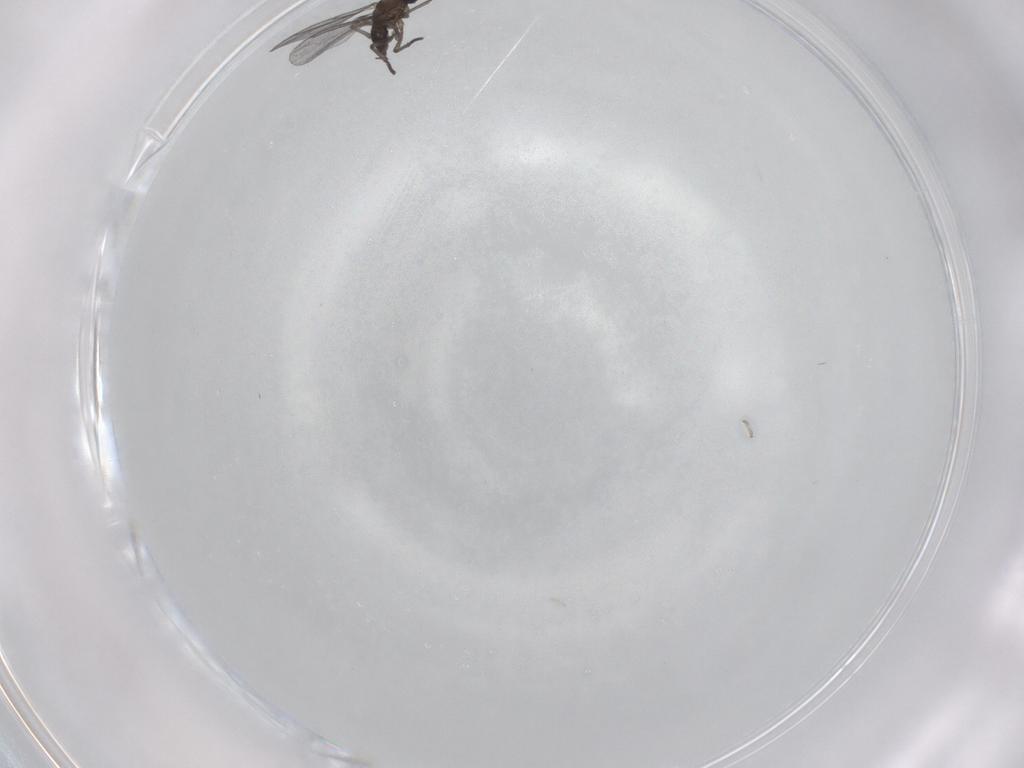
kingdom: Animalia
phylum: Arthropoda
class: Insecta
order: Diptera
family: Chironomidae
